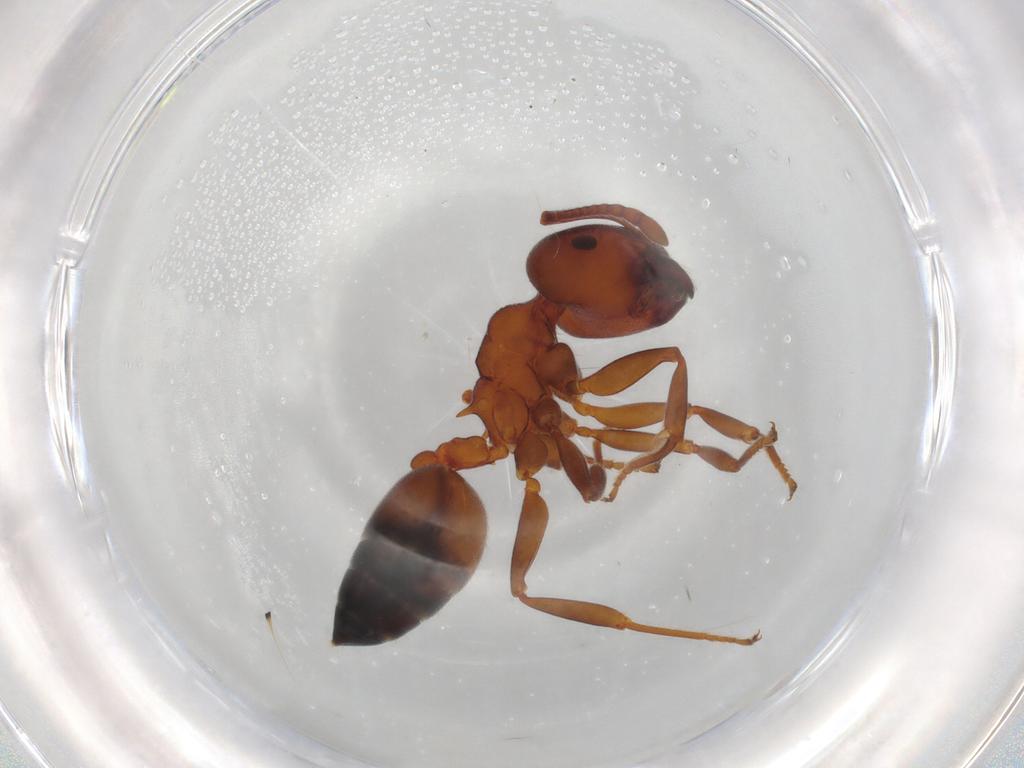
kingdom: Animalia
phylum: Arthropoda
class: Insecta
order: Hymenoptera
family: Formicidae
